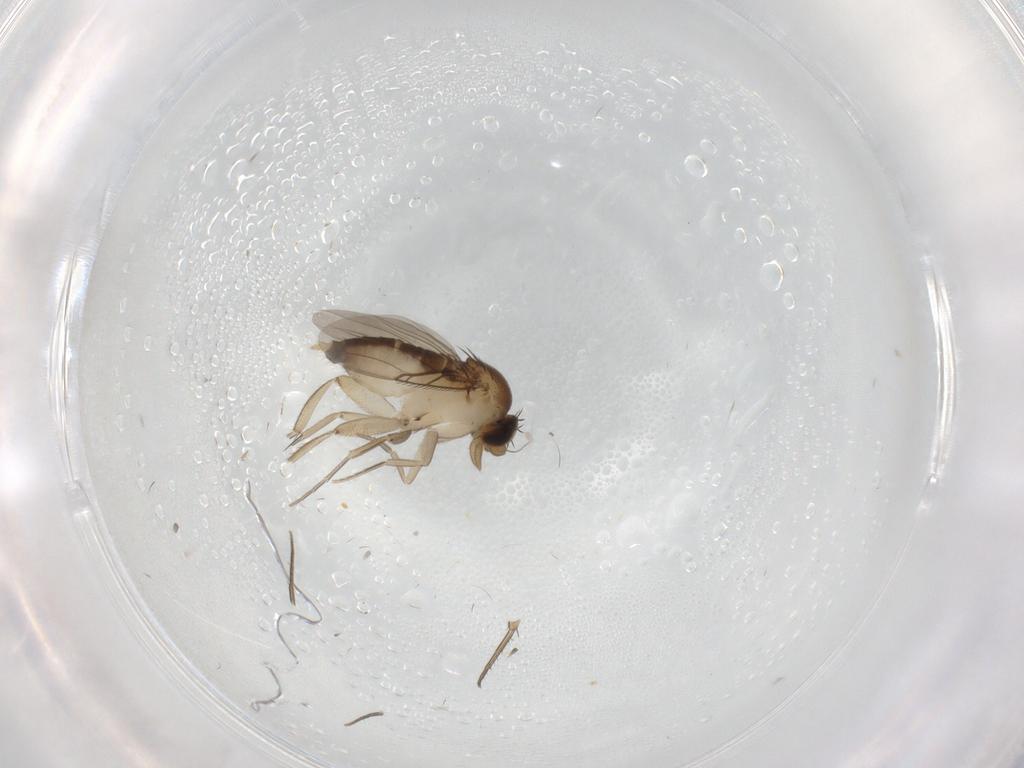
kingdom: Animalia
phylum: Arthropoda
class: Insecta
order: Diptera
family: Phoridae
